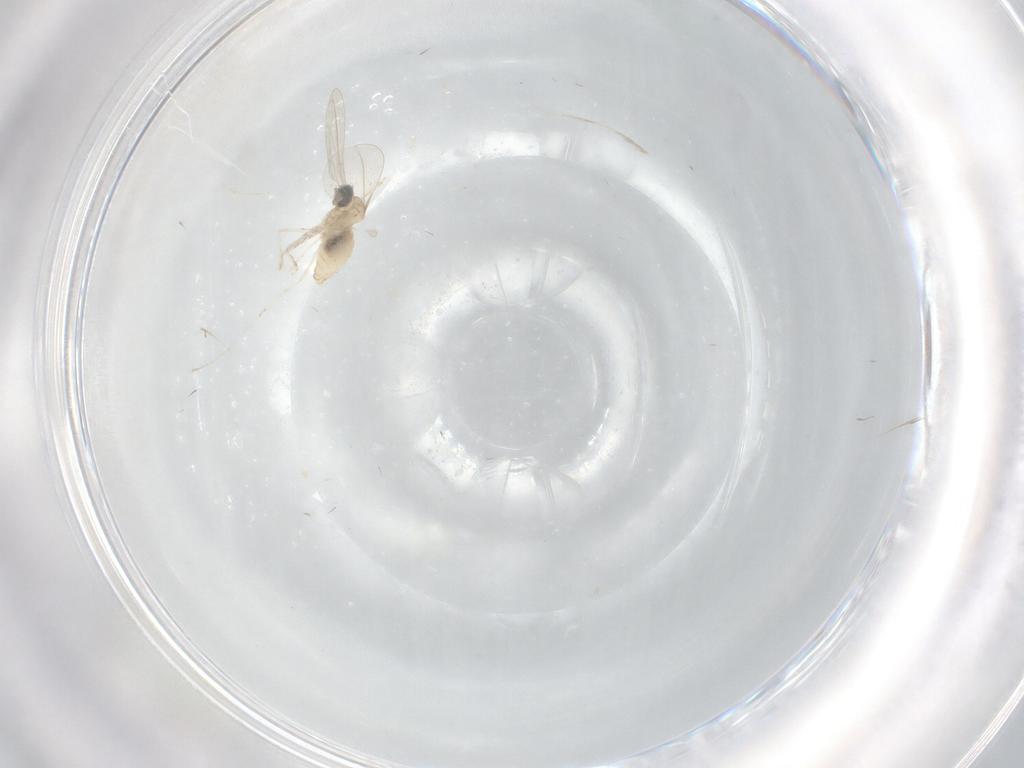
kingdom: Animalia
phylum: Arthropoda
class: Insecta
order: Diptera
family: Cecidomyiidae
